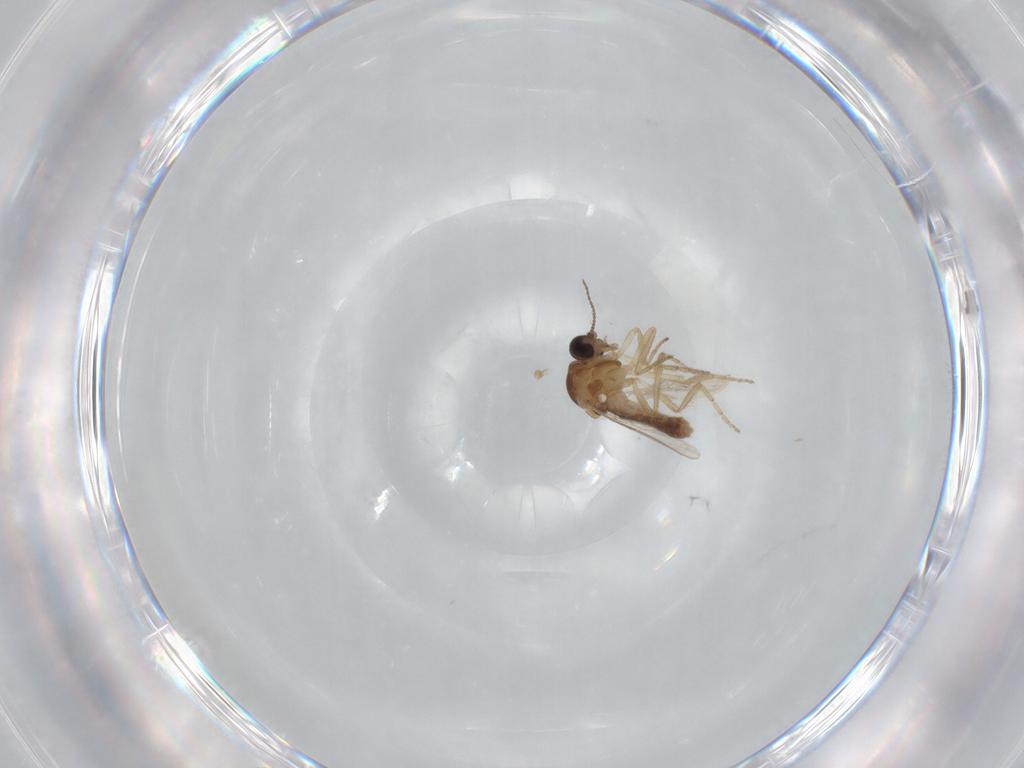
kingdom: Animalia
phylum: Arthropoda
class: Insecta
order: Diptera
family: Ceratopogonidae
